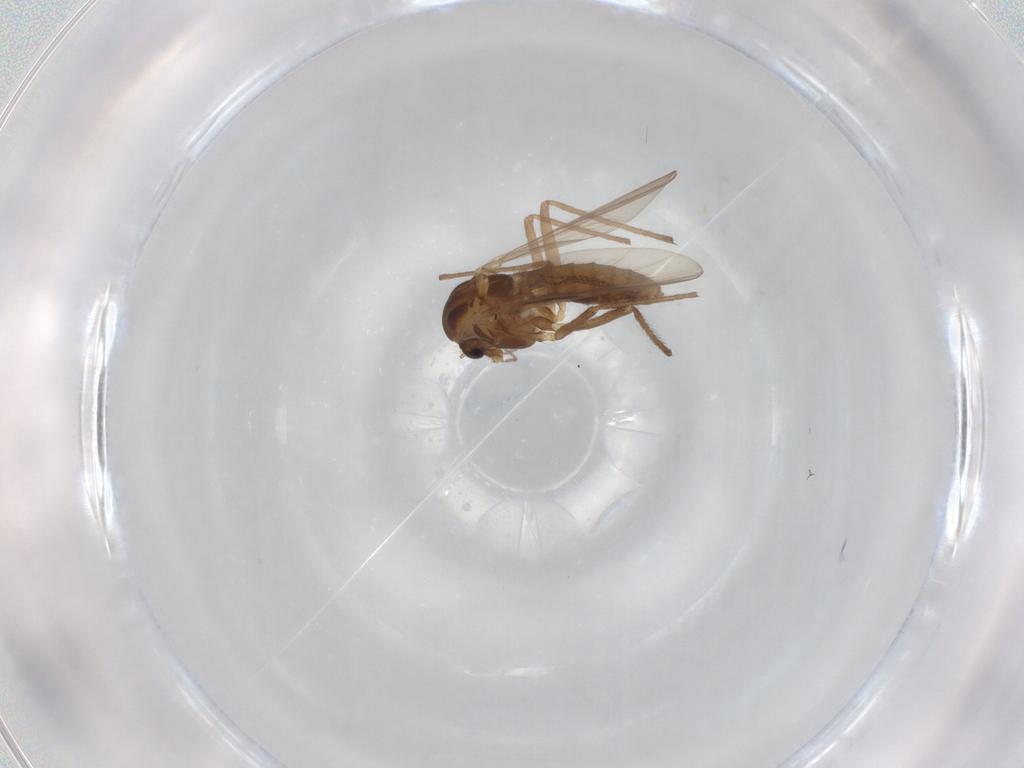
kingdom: Animalia
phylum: Arthropoda
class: Insecta
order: Diptera
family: Chironomidae
